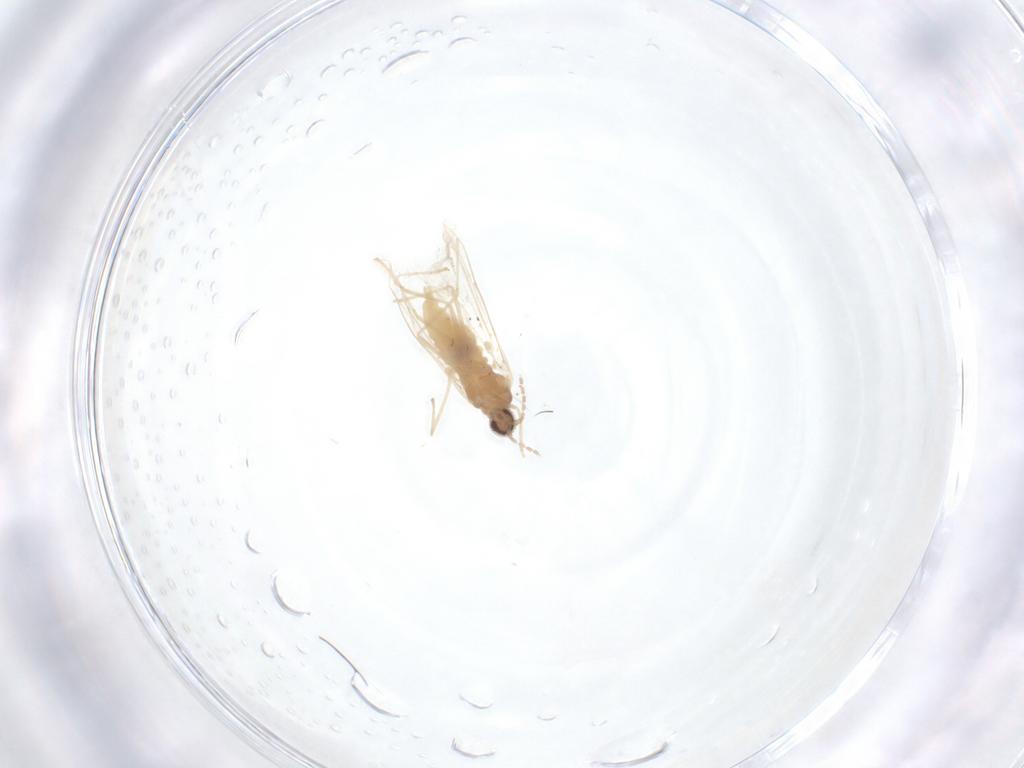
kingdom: Animalia
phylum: Arthropoda
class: Insecta
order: Diptera
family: Cecidomyiidae
